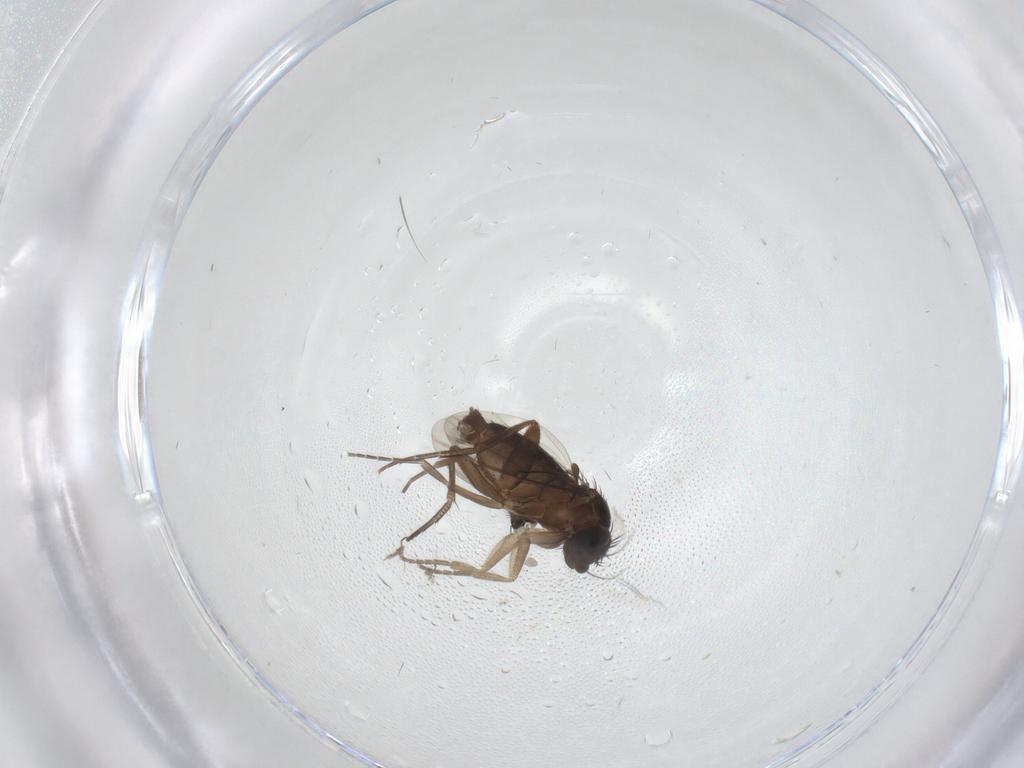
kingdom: Animalia
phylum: Arthropoda
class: Insecta
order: Diptera
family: Phoridae
